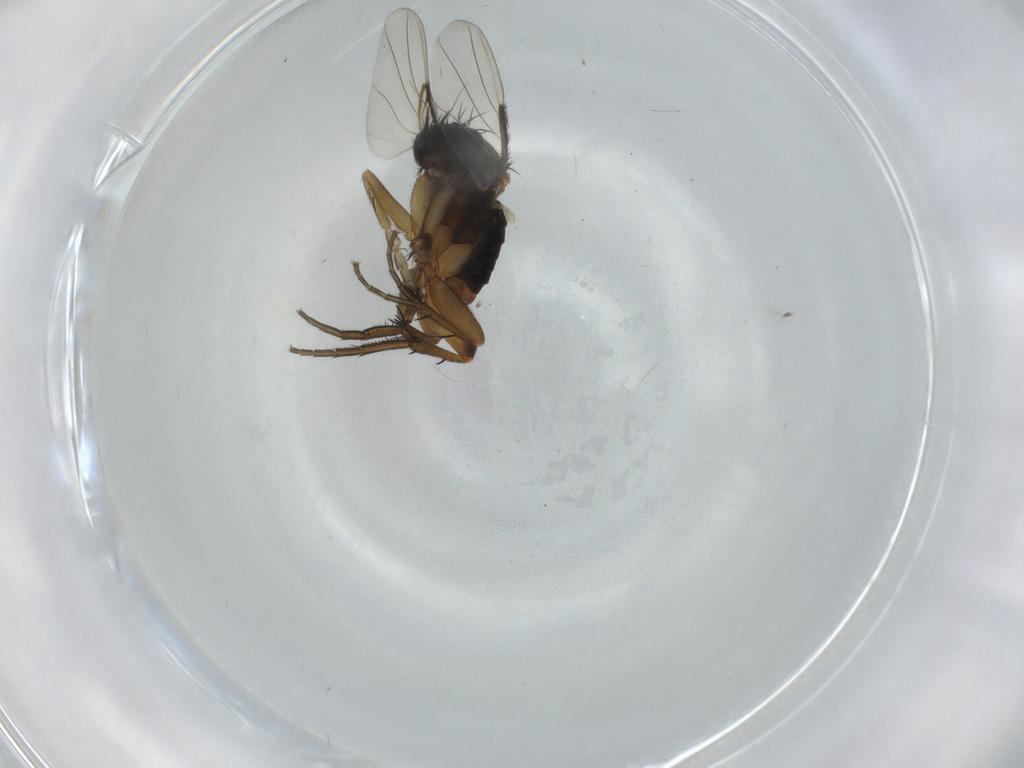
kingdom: Animalia
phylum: Arthropoda
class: Insecta
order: Diptera
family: Phoridae
